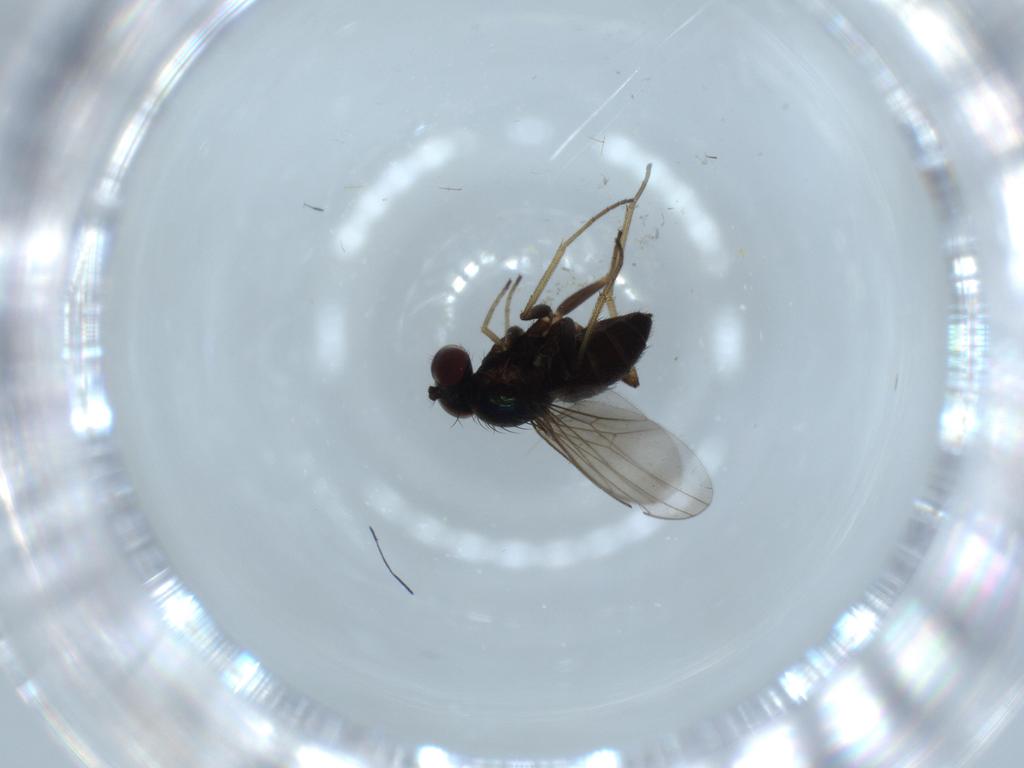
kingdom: Animalia
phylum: Arthropoda
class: Insecta
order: Diptera
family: Dolichopodidae
